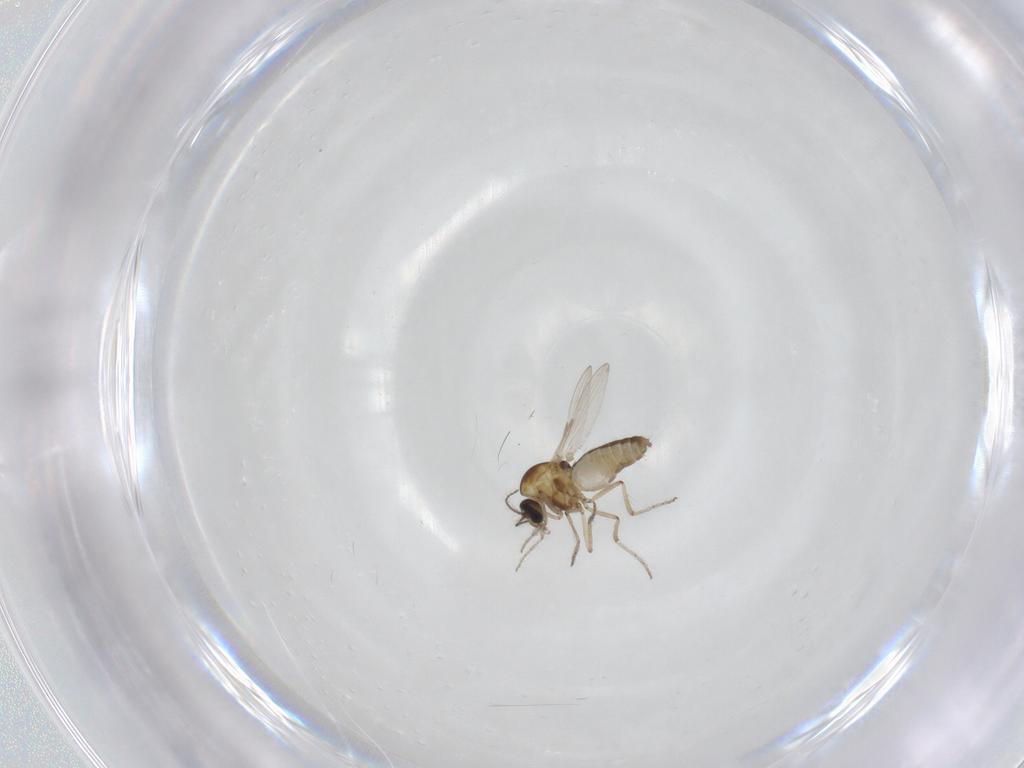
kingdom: Animalia
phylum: Arthropoda
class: Insecta
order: Diptera
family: Ceratopogonidae
